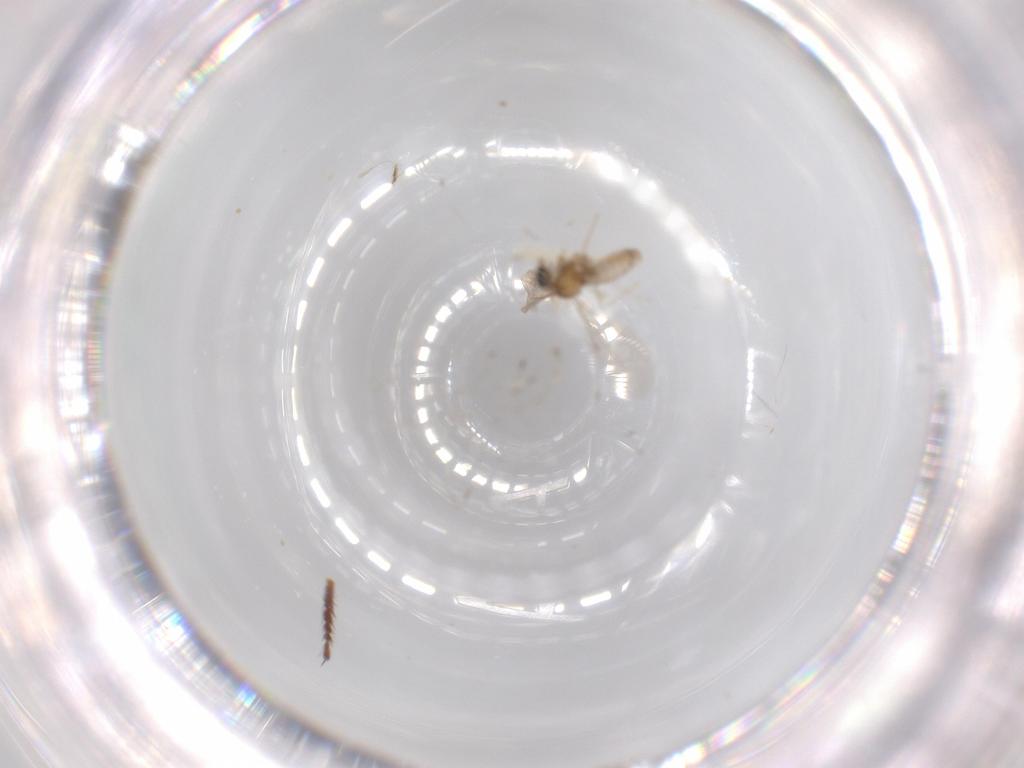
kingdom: Animalia
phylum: Arthropoda
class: Insecta
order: Diptera
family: Cecidomyiidae
